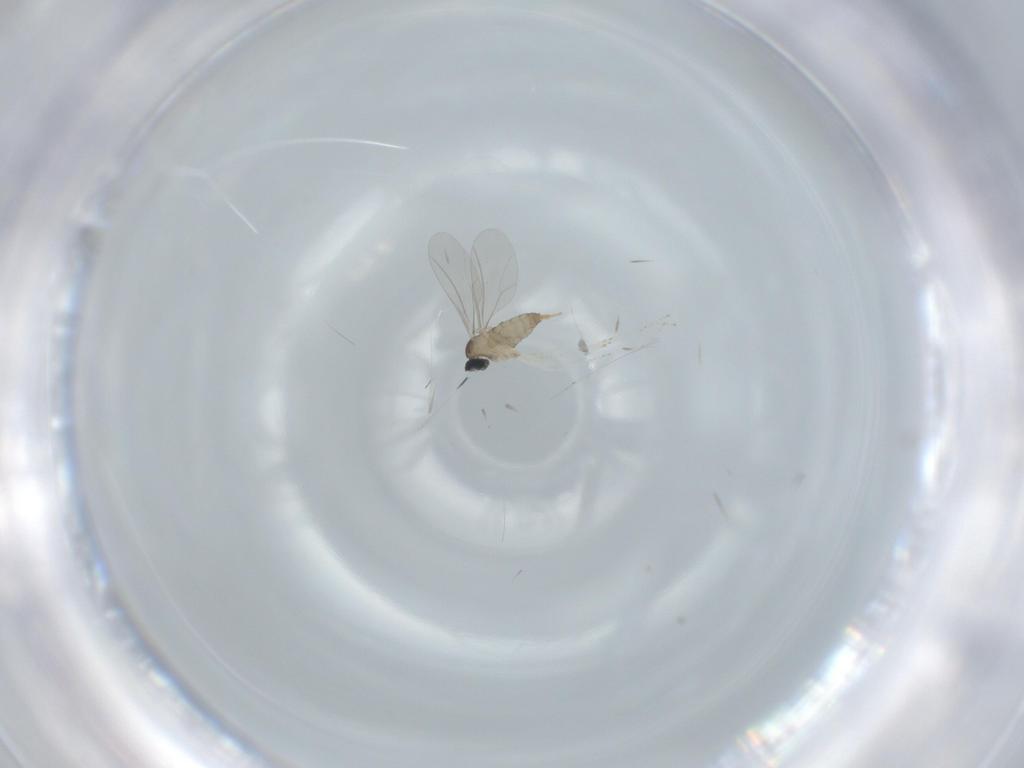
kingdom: Animalia
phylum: Arthropoda
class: Insecta
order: Diptera
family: Cecidomyiidae
